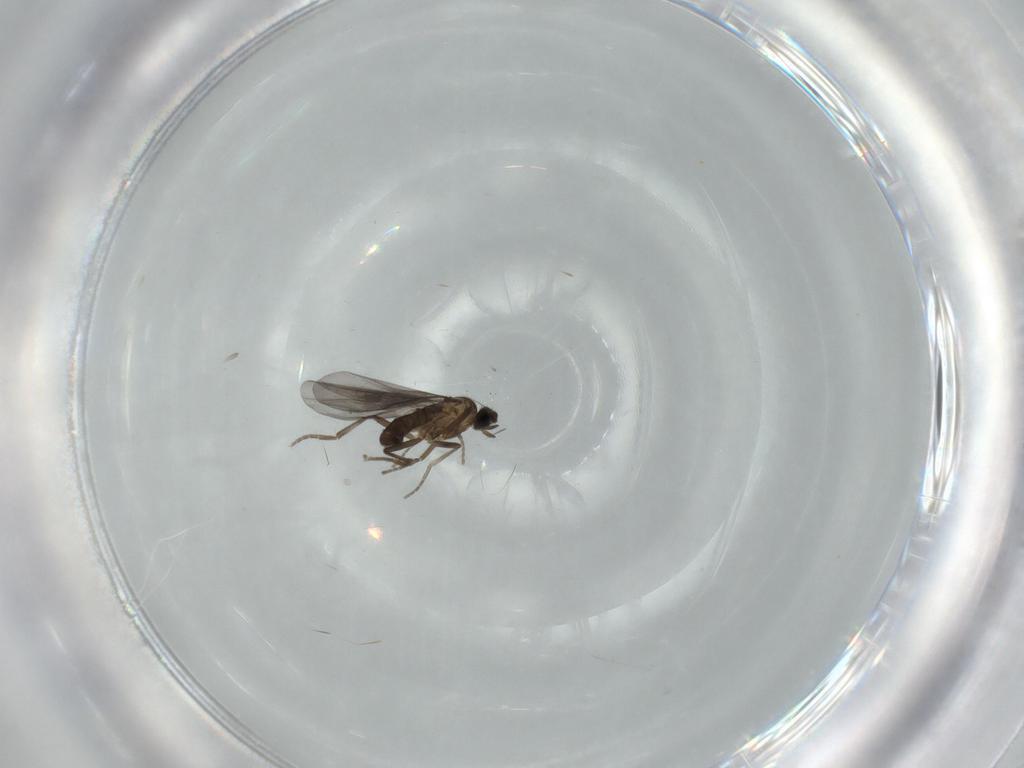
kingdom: Animalia
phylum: Arthropoda
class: Insecta
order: Diptera
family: Phoridae
